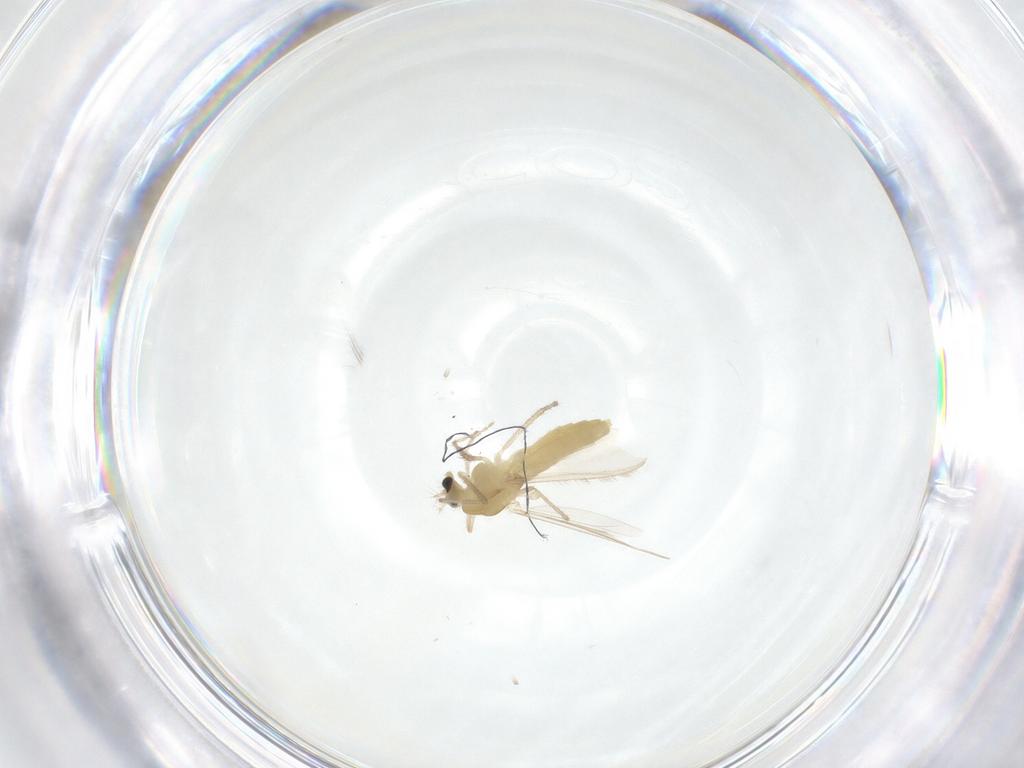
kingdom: Animalia
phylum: Arthropoda
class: Insecta
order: Diptera
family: Chironomidae
